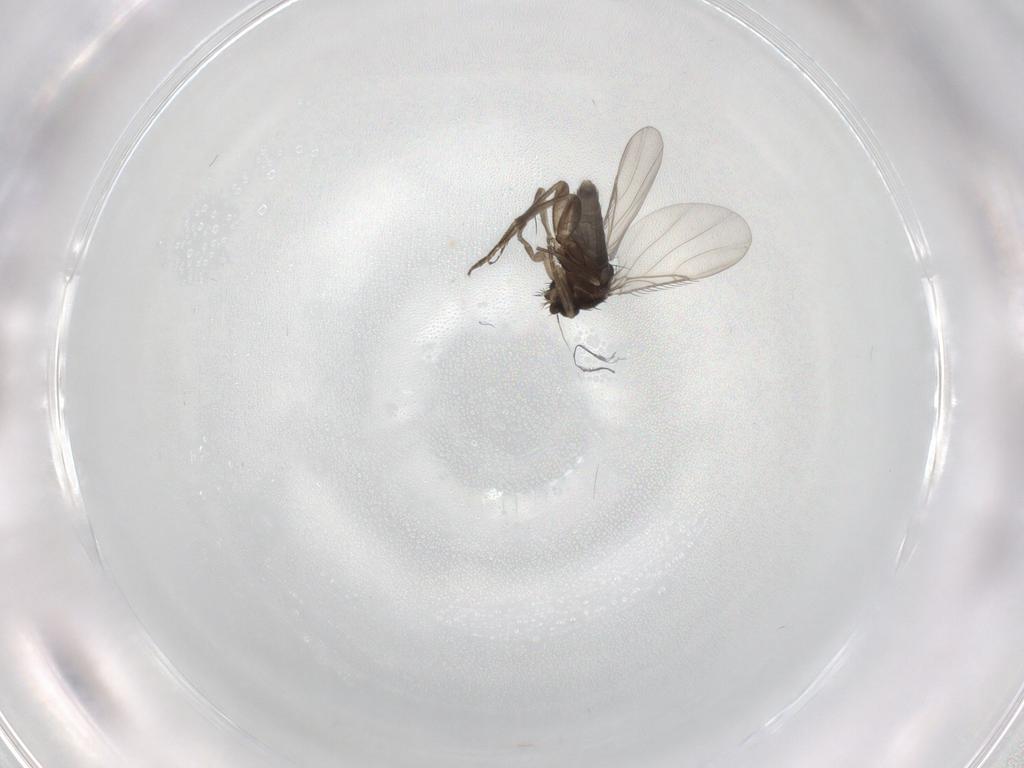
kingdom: Animalia
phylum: Arthropoda
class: Insecta
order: Diptera
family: Phoridae
